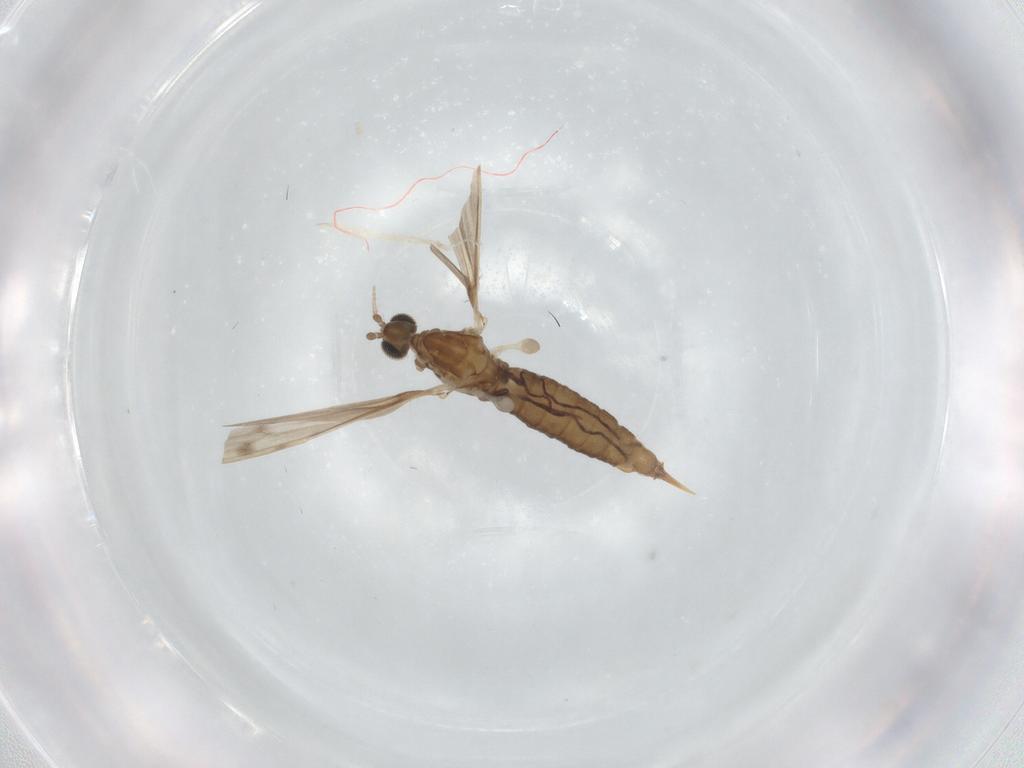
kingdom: Animalia
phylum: Arthropoda
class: Insecta
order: Diptera
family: Limoniidae
